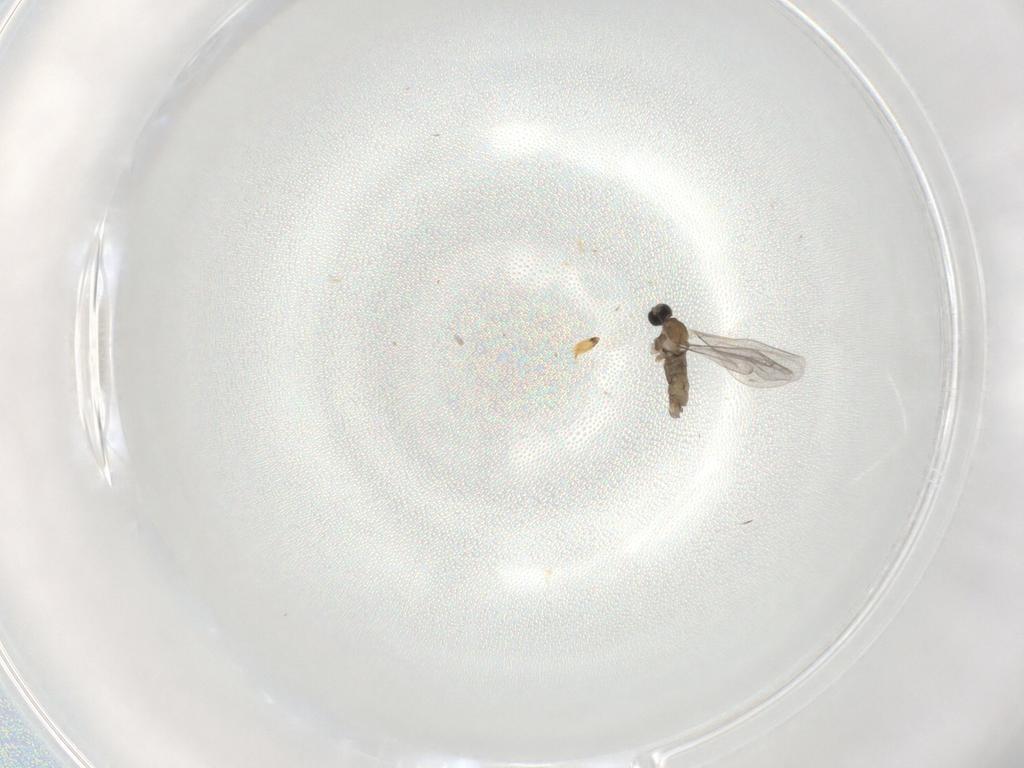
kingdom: Animalia
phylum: Arthropoda
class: Insecta
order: Diptera
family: Cecidomyiidae
